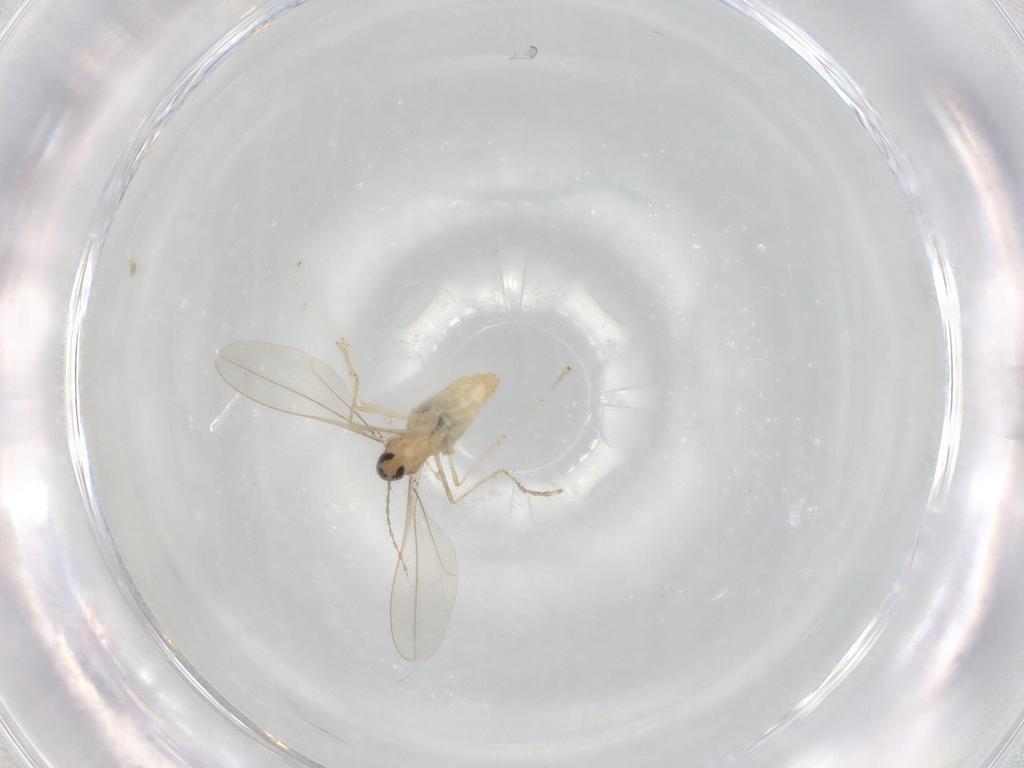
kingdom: Animalia
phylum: Arthropoda
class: Insecta
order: Diptera
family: Cecidomyiidae
